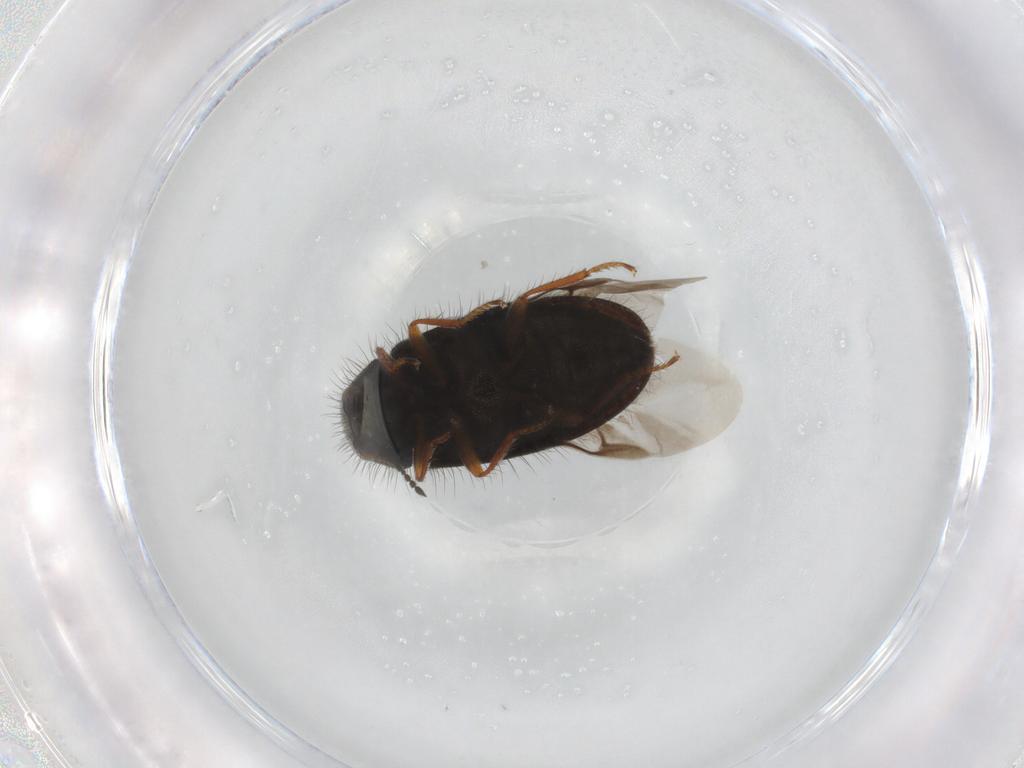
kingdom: Animalia
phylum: Arthropoda
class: Insecta
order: Coleoptera
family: Melyridae
